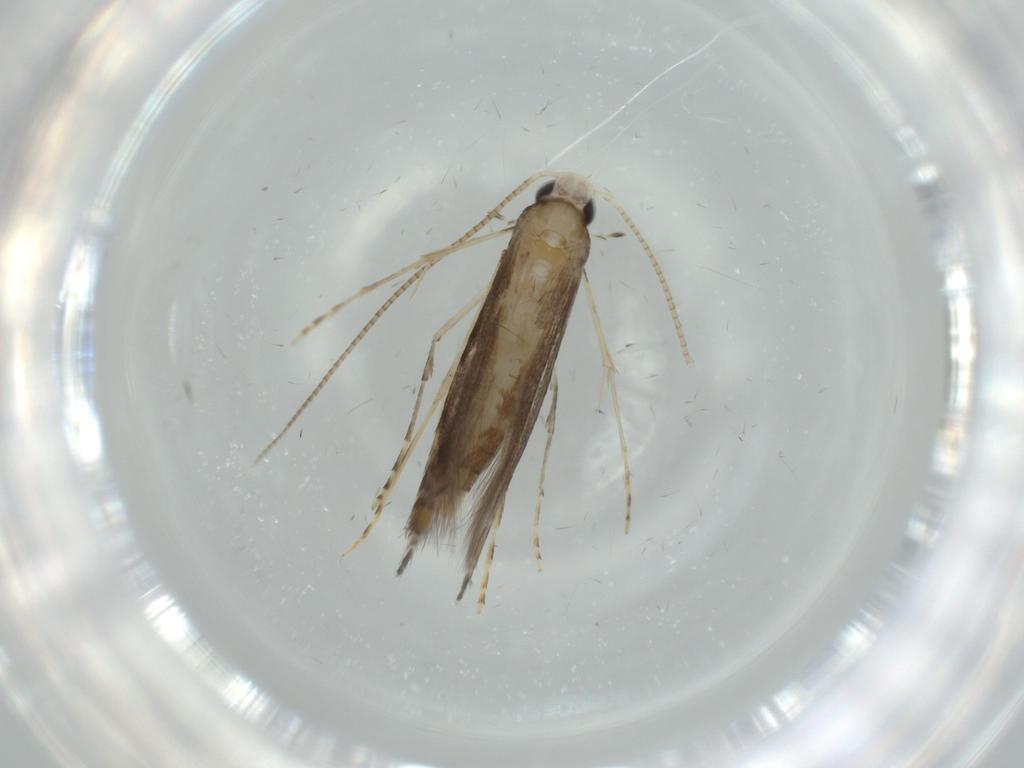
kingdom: Animalia
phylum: Arthropoda
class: Insecta
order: Lepidoptera
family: Gracillariidae
